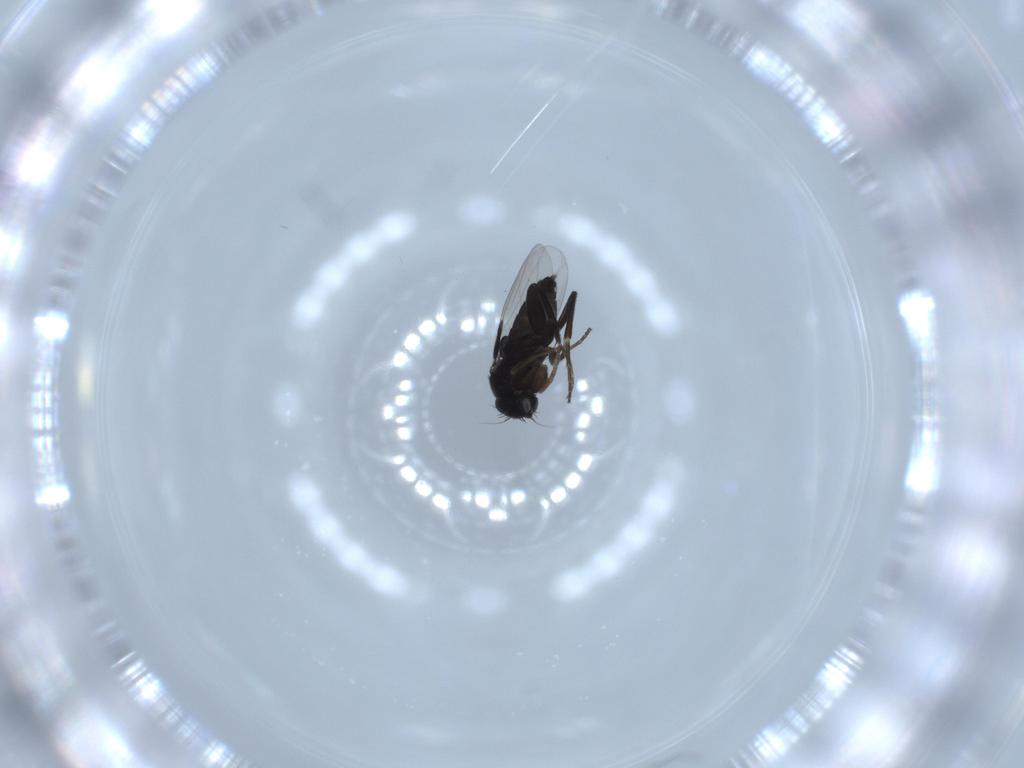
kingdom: Animalia
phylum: Arthropoda
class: Insecta
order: Diptera
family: Phoridae
